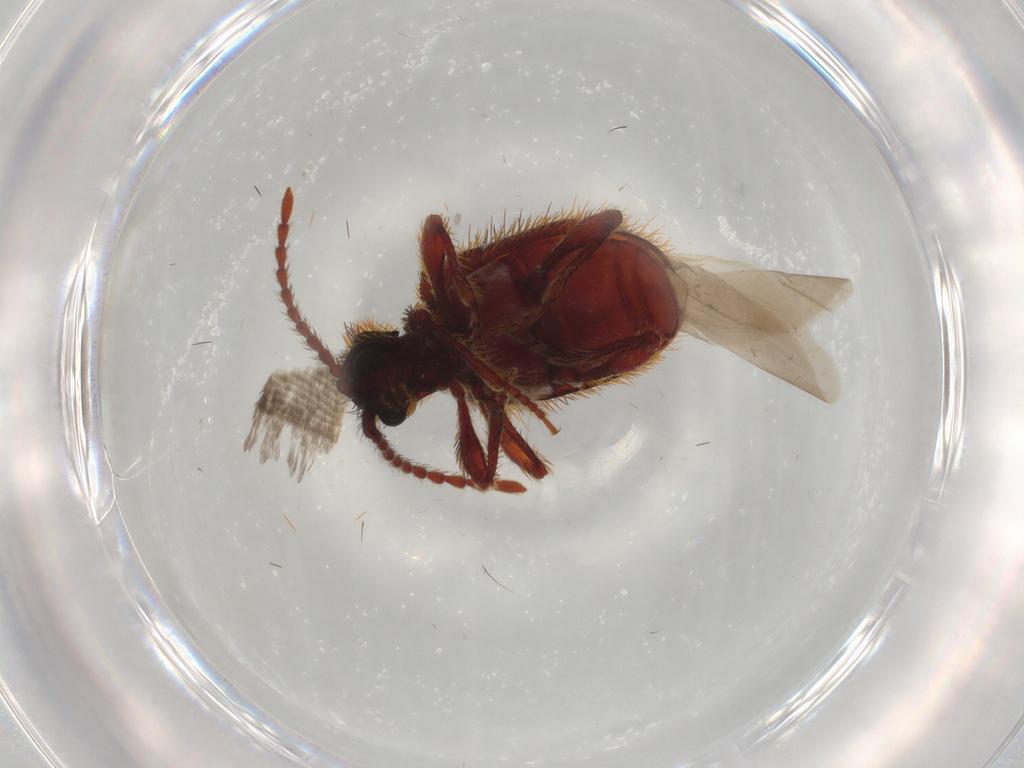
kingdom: Animalia
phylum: Arthropoda
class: Insecta
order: Coleoptera
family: Ptinidae
